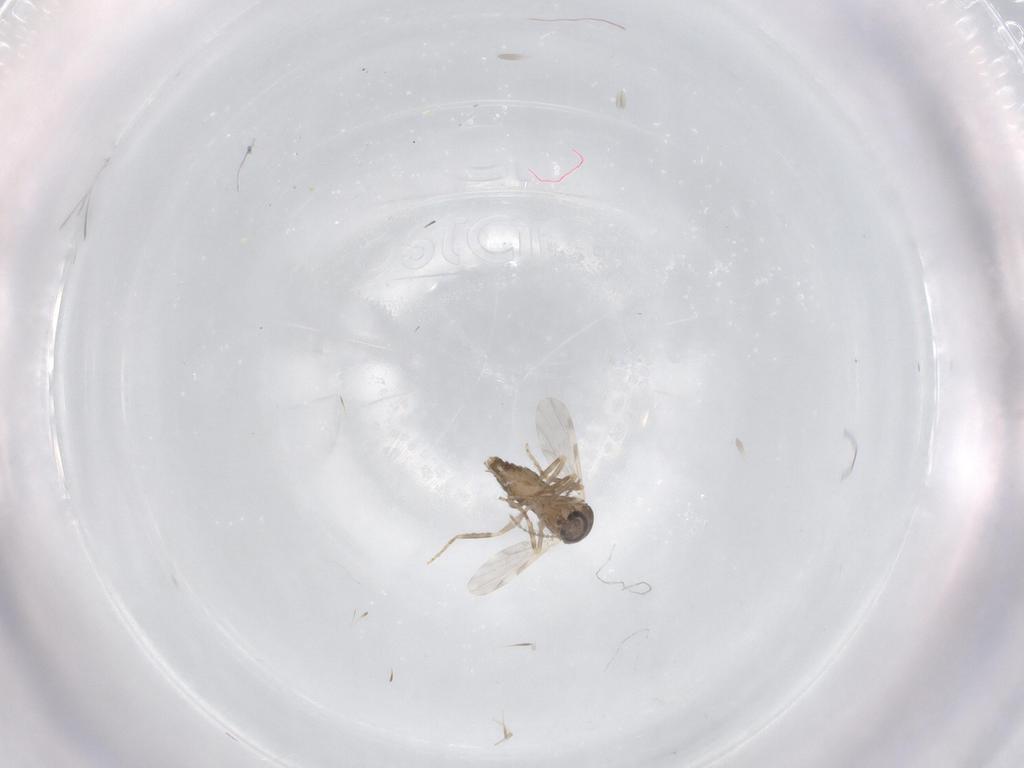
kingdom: Animalia
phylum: Arthropoda
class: Insecta
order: Diptera
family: Ceratopogonidae
